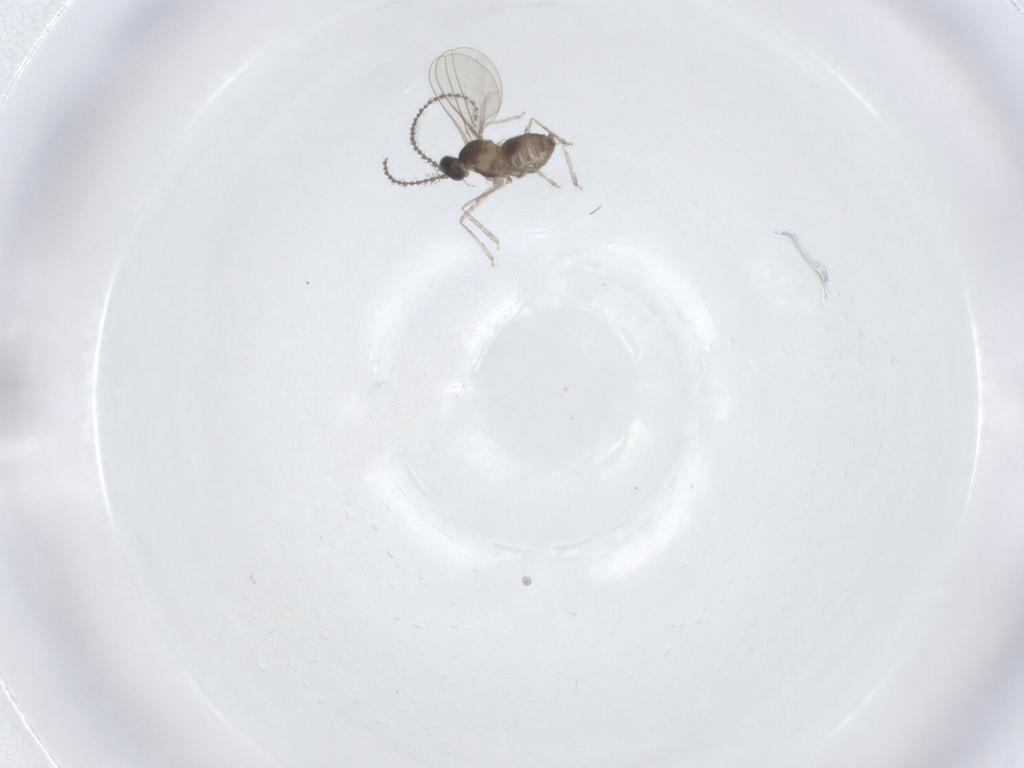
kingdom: Animalia
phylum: Arthropoda
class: Insecta
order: Diptera
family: Cecidomyiidae
